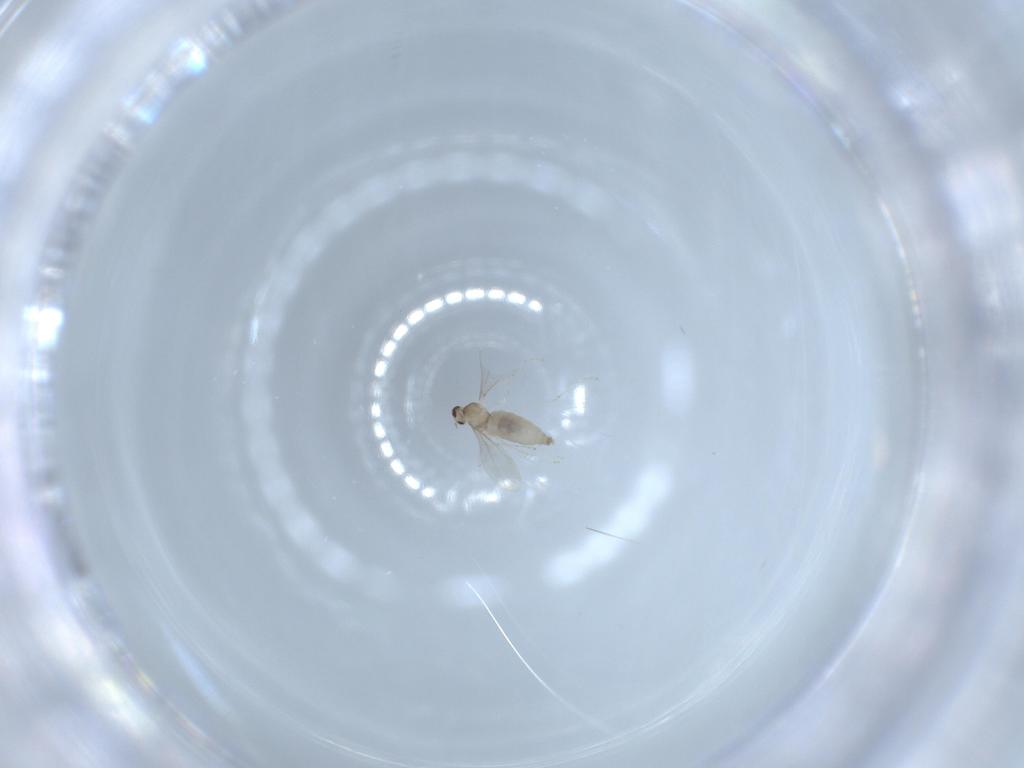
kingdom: Animalia
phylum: Arthropoda
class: Insecta
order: Diptera
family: Cecidomyiidae
